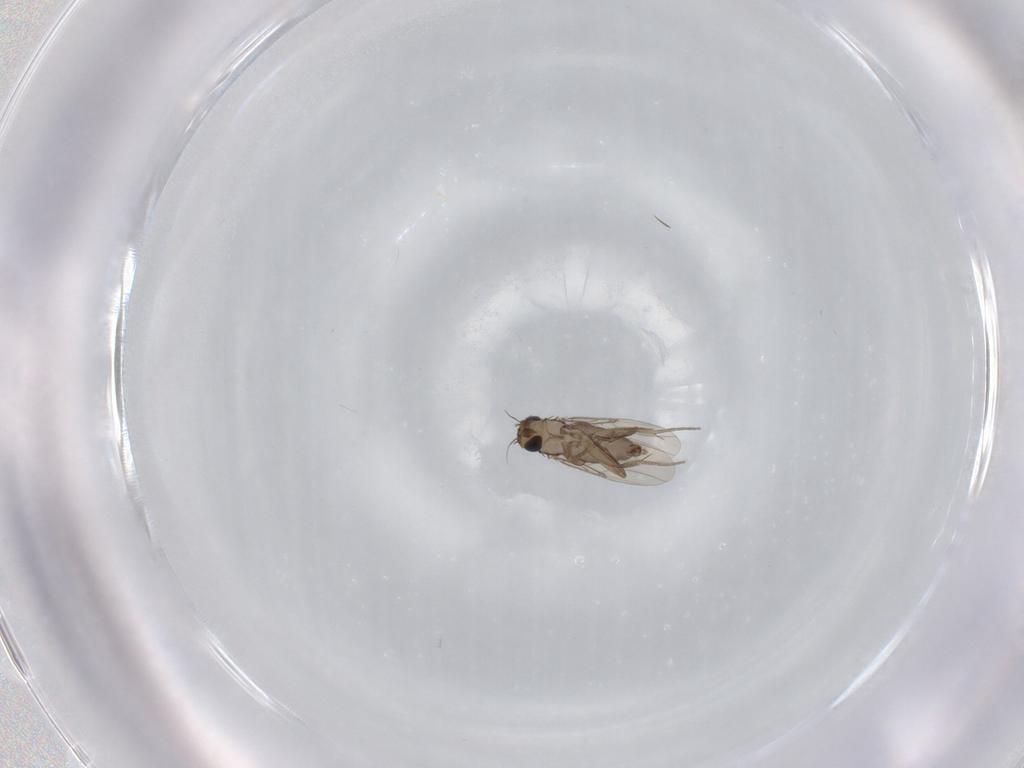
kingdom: Animalia
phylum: Arthropoda
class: Insecta
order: Diptera
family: Phoridae
